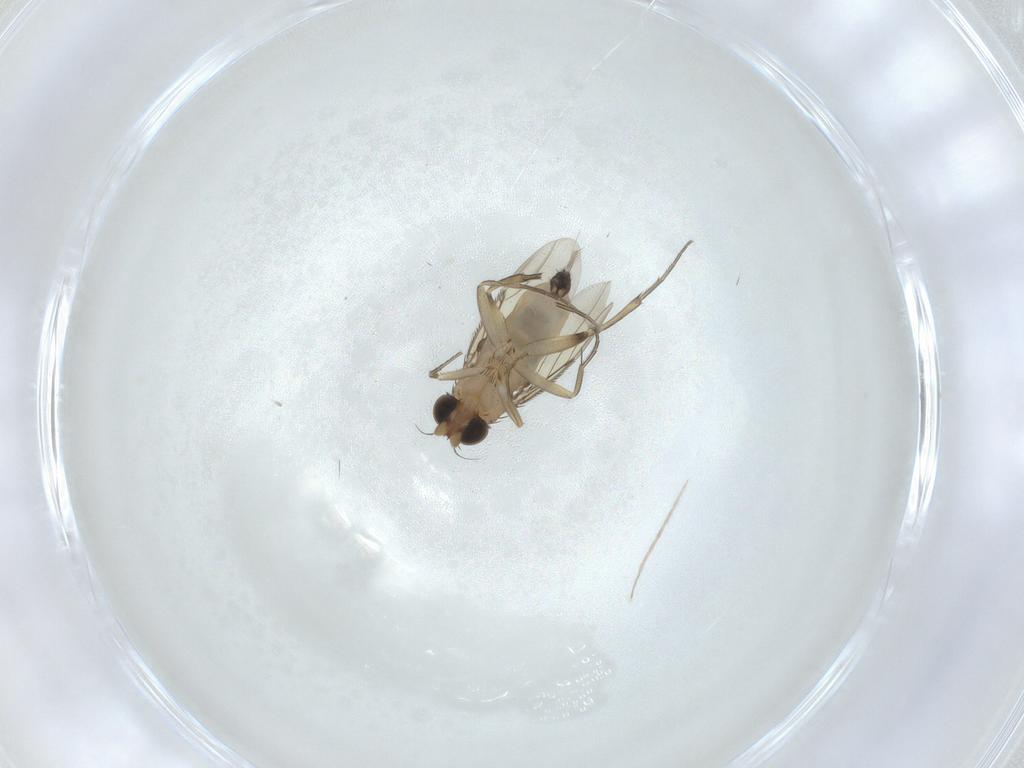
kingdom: Animalia
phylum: Arthropoda
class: Insecta
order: Diptera
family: Phoridae
